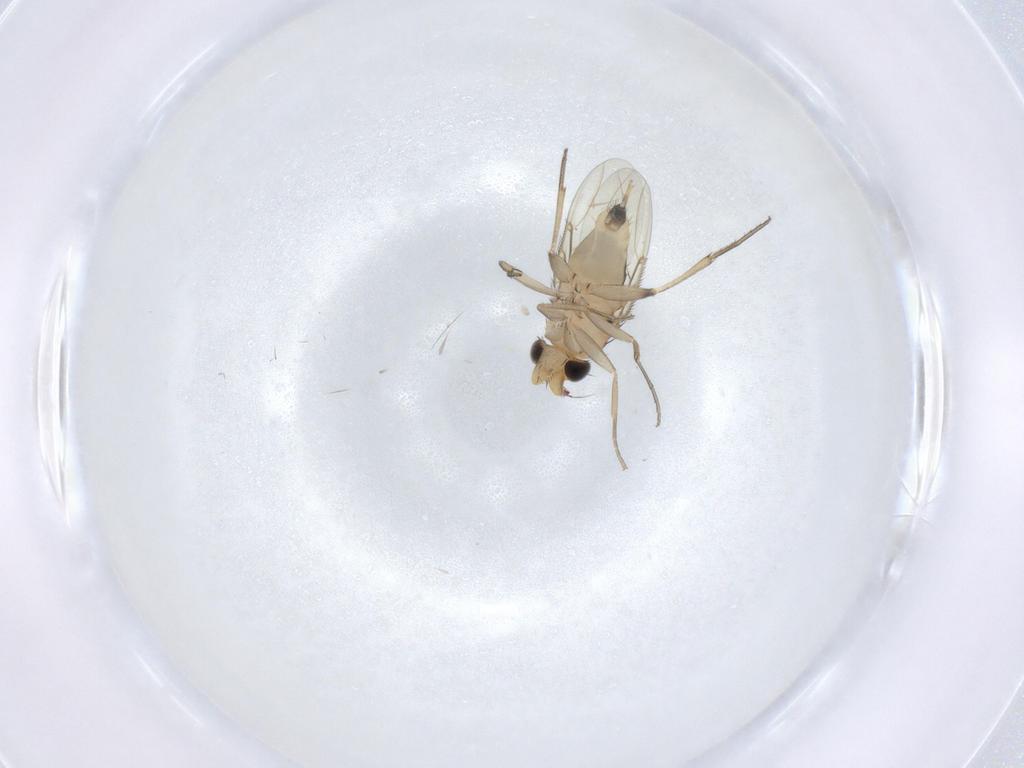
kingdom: Animalia
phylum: Arthropoda
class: Insecta
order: Diptera
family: Phoridae
